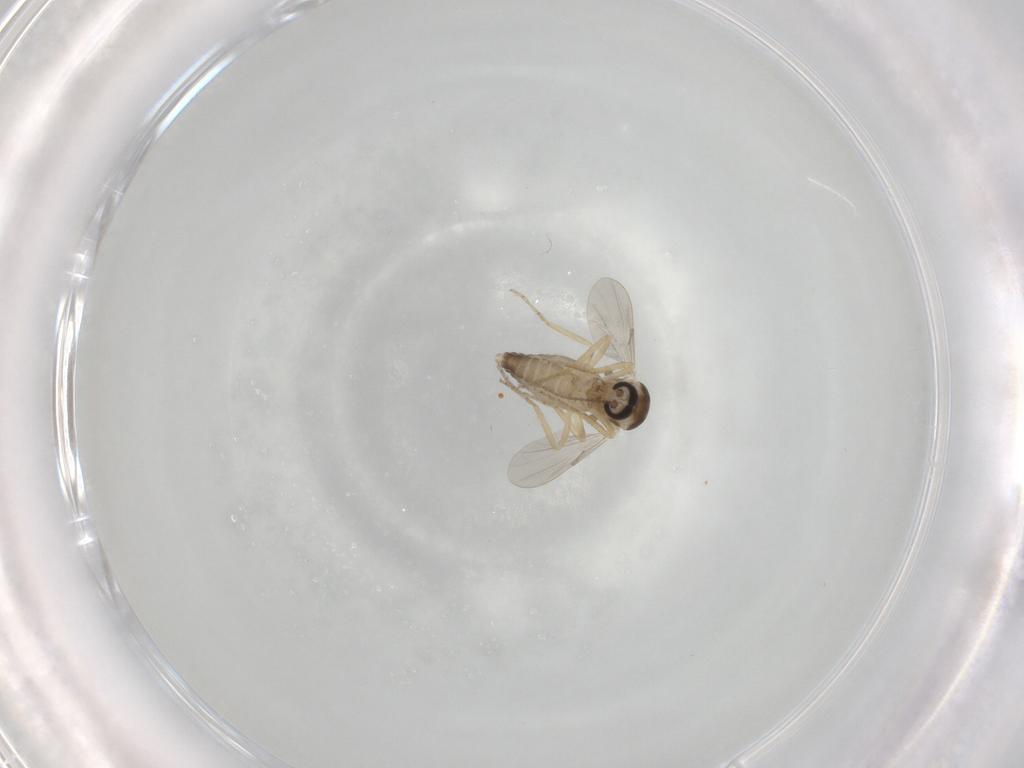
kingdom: Animalia
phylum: Arthropoda
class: Insecta
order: Diptera
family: Ceratopogonidae
